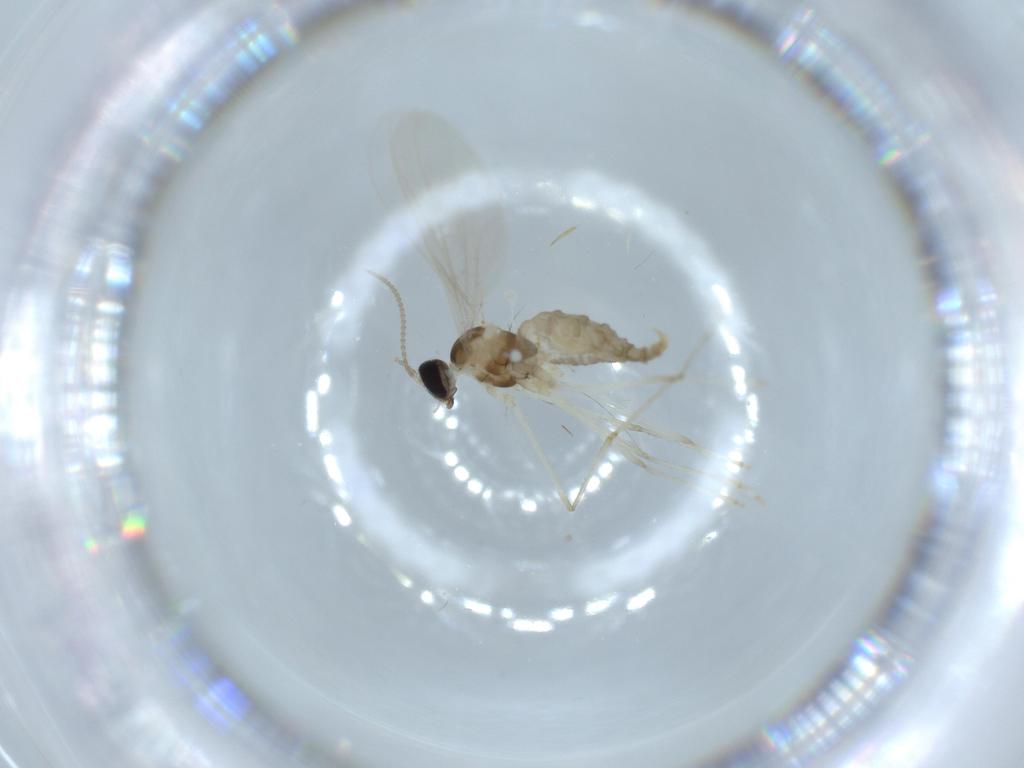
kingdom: Animalia
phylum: Arthropoda
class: Insecta
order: Diptera
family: Cecidomyiidae
